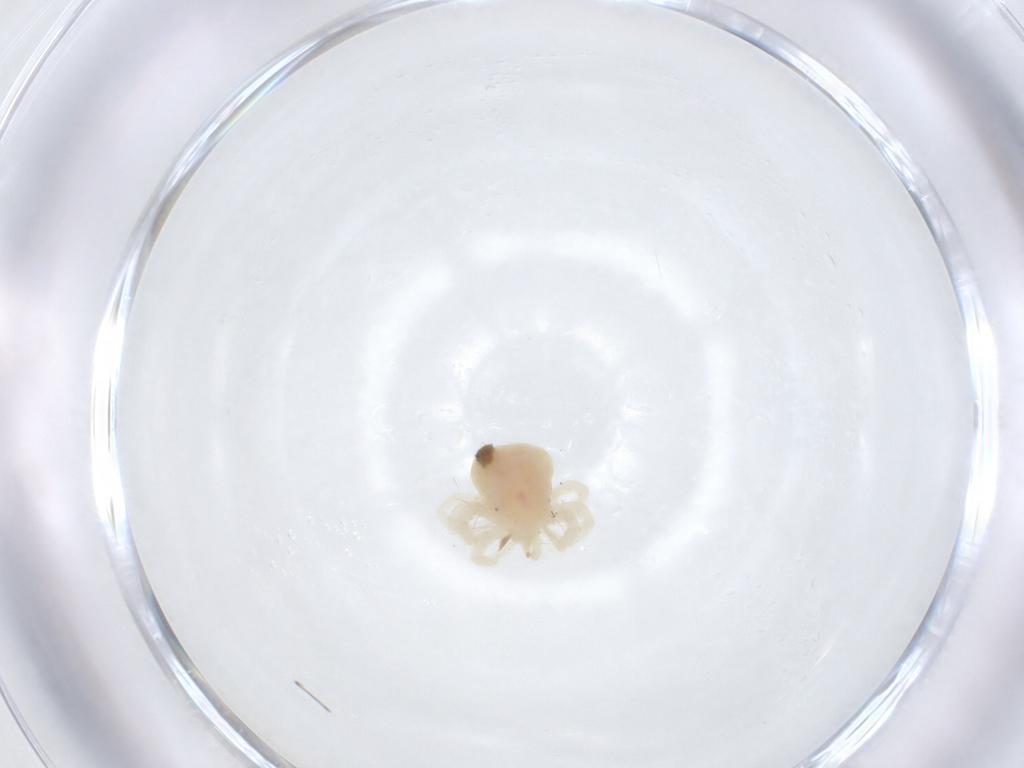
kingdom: Animalia
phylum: Arthropoda
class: Arachnida
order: Trombidiformes
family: Anystidae
